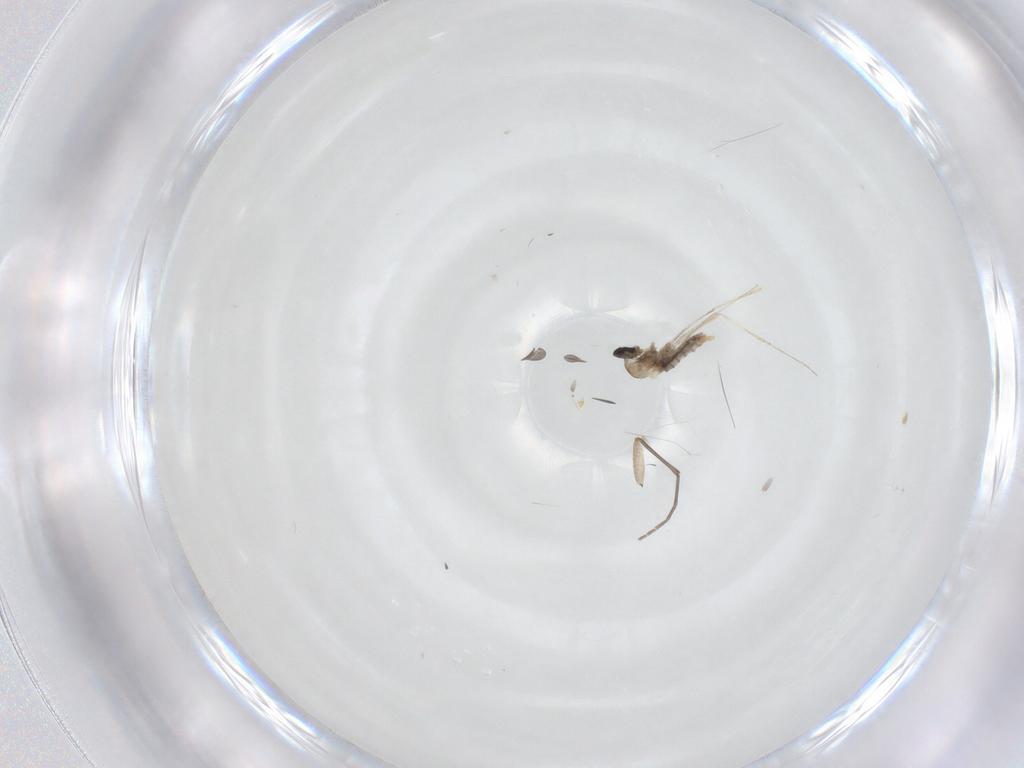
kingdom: Animalia
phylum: Arthropoda
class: Insecta
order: Diptera
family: Cecidomyiidae
